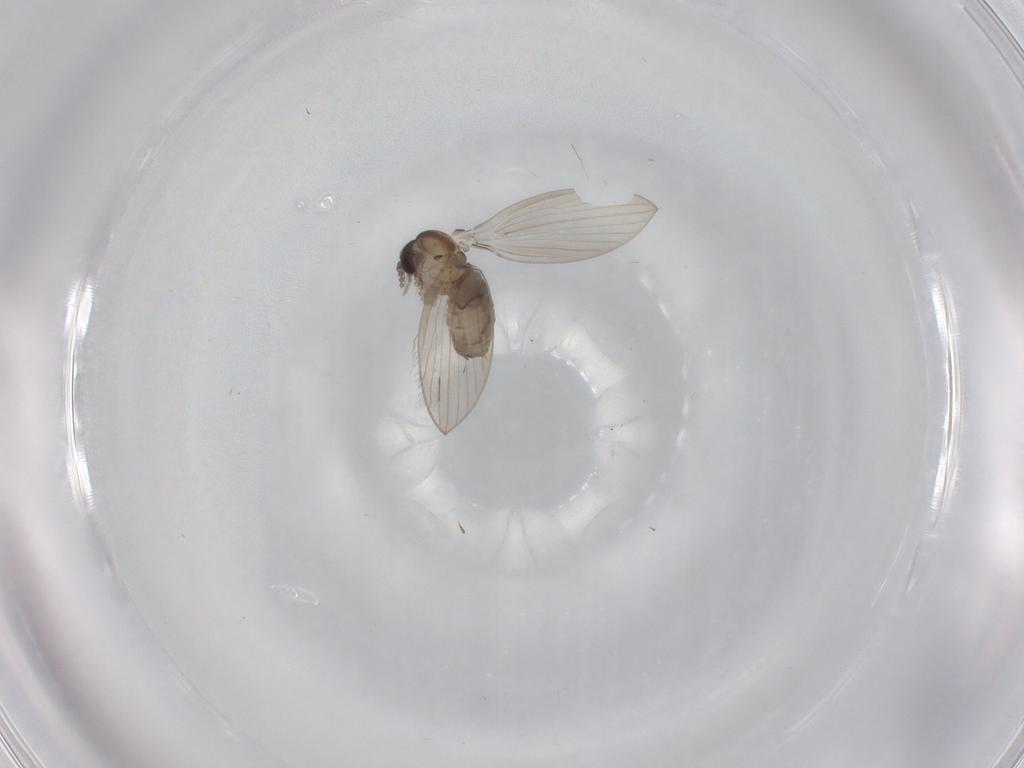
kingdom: Animalia
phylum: Arthropoda
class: Insecta
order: Diptera
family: Psychodidae
